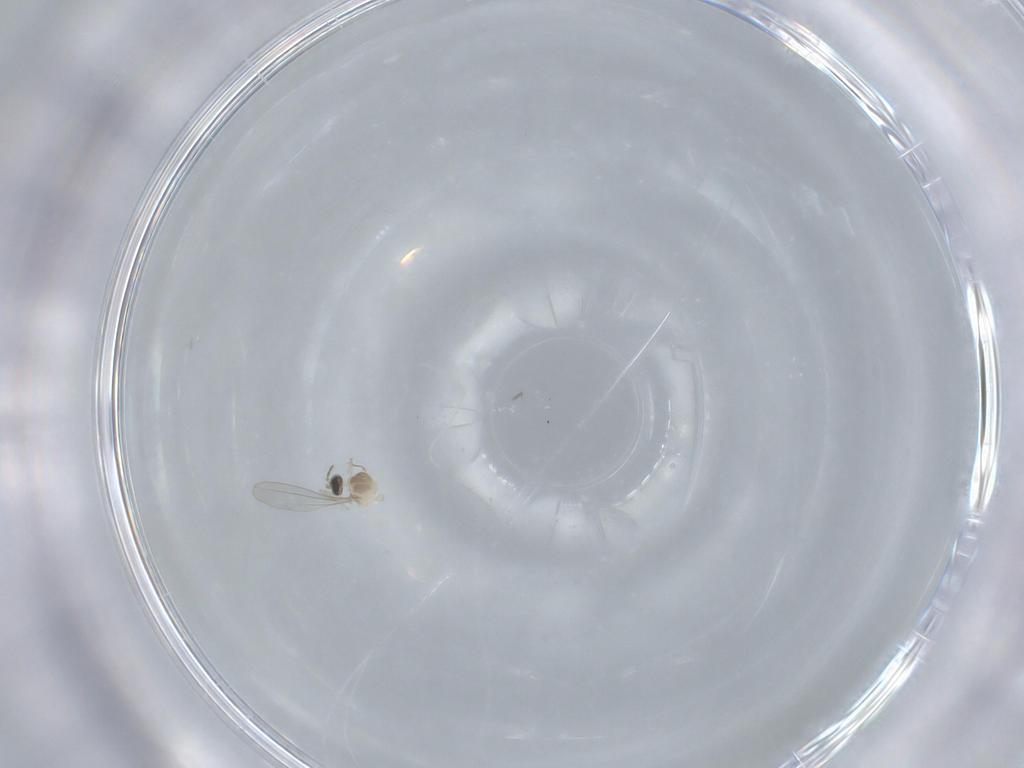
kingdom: Animalia
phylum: Arthropoda
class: Insecta
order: Diptera
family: Cecidomyiidae
